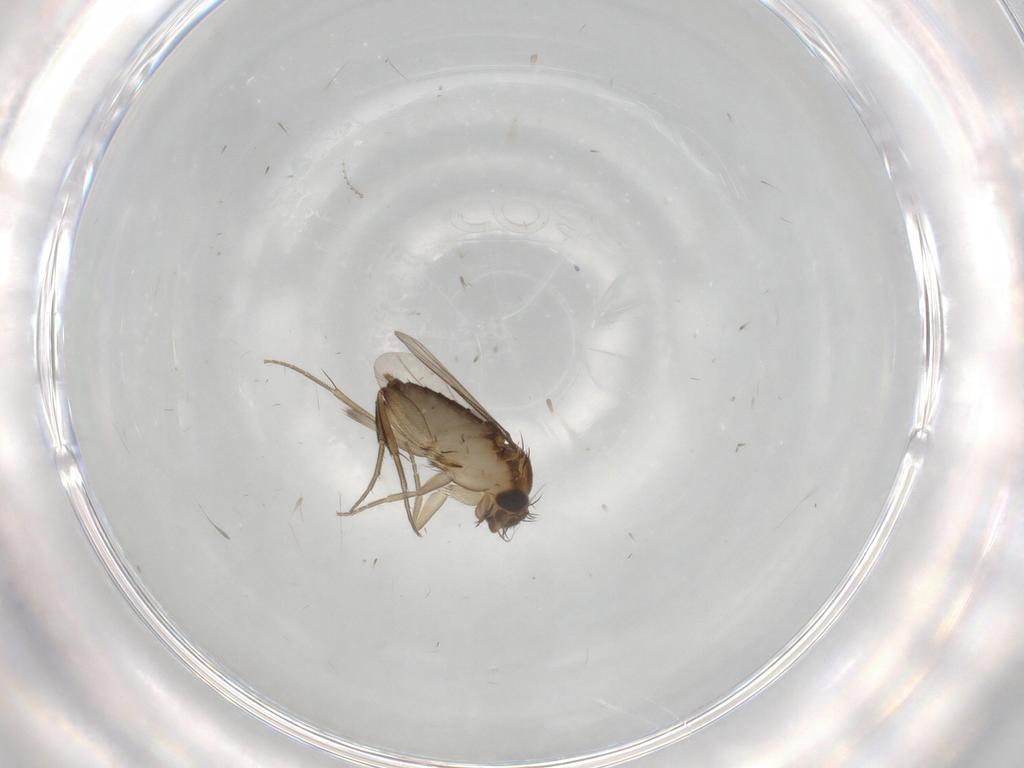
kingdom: Animalia
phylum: Arthropoda
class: Insecta
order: Diptera
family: Phoridae
